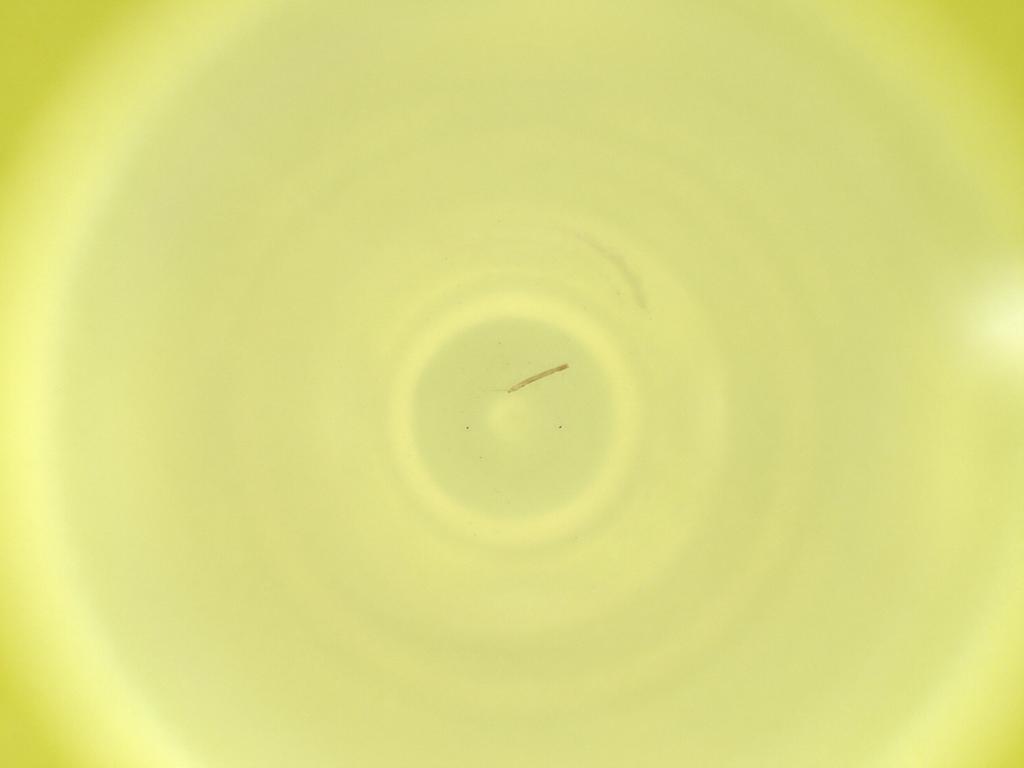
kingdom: Animalia
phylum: Arthropoda
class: Insecta
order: Diptera
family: Cecidomyiidae
